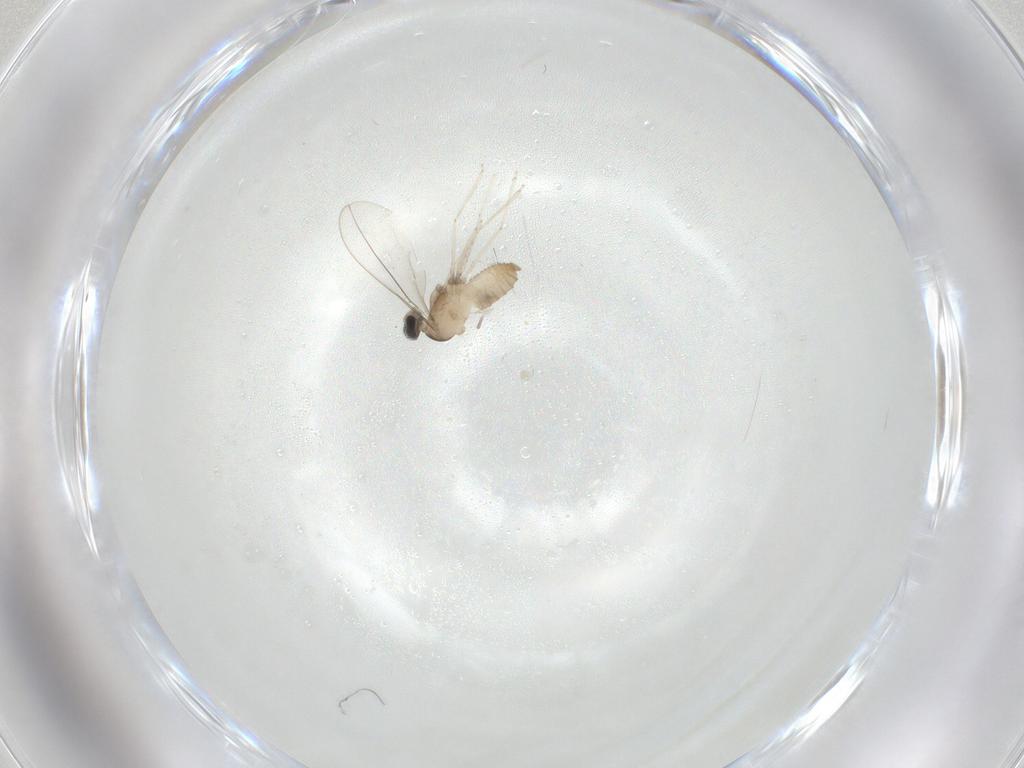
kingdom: Animalia
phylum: Arthropoda
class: Insecta
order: Diptera
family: Cecidomyiidae
